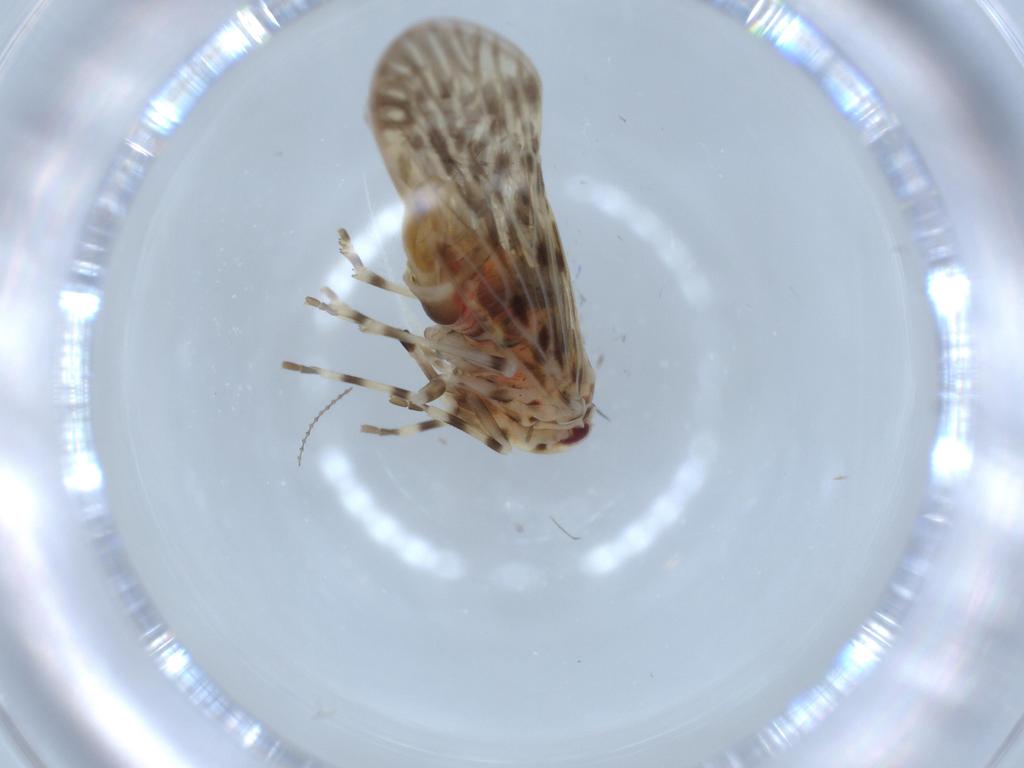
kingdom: Animalia
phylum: Arthropoda
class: Insecta
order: Hemiptera
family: Derbidae
